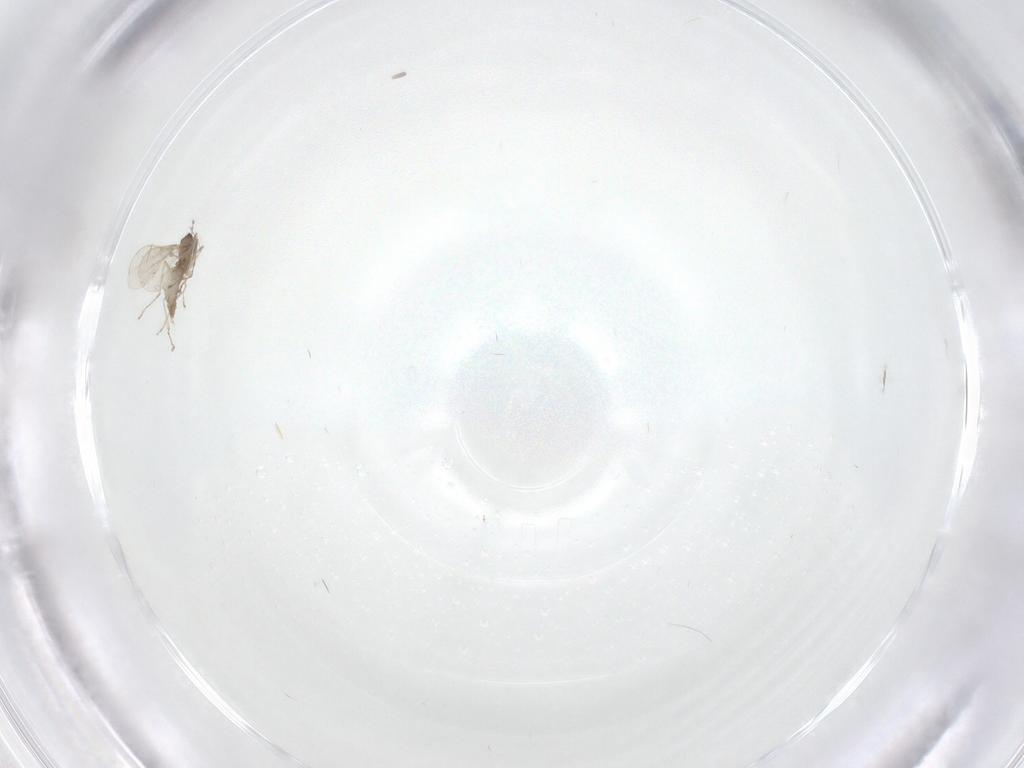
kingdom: Animalia
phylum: Arthropoda
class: Insecta
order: Diptera
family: Cecidomyiidae
